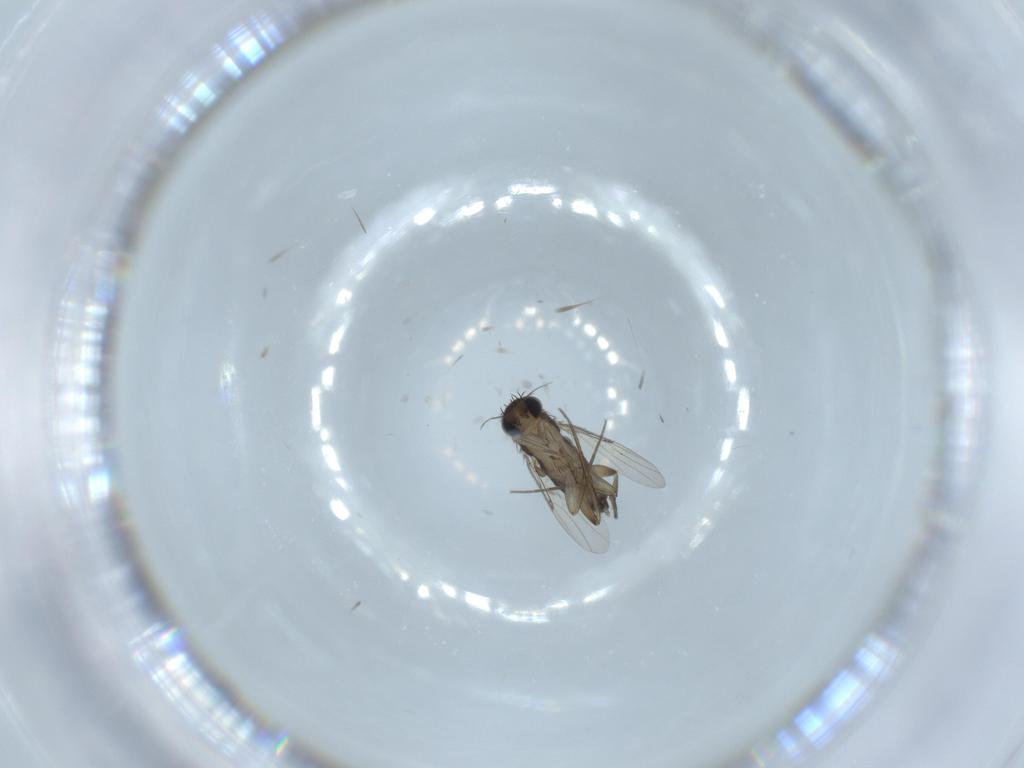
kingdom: Animalia
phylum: Arthropoda
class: Insecta
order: Diptera
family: Phoridae
